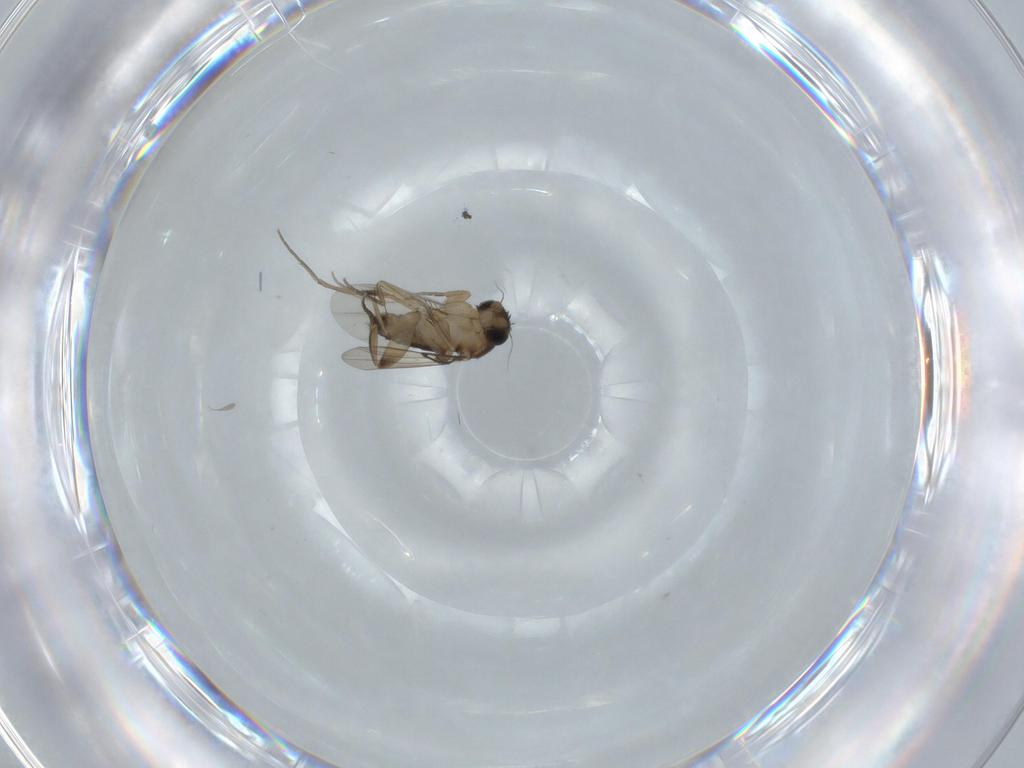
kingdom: Animalia
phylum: Arthropoda
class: Insecta
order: Diptera
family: Phoridae
